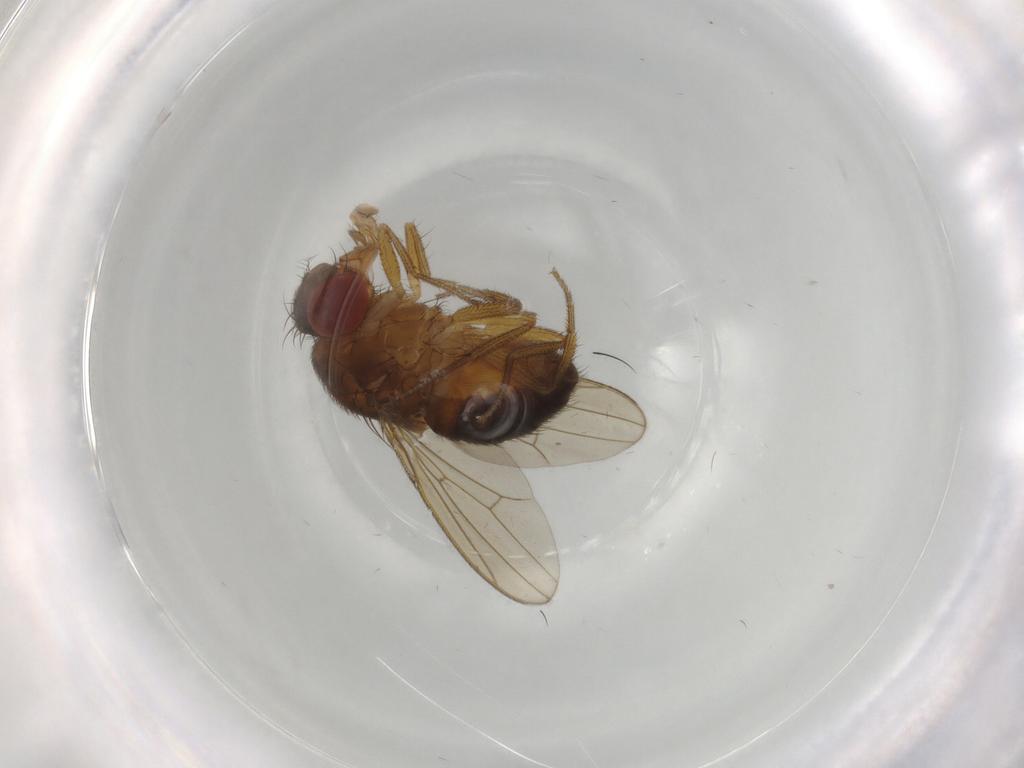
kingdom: Animalia
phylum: Arthropoda
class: Insecta
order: Diptera
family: Drosophilidae
